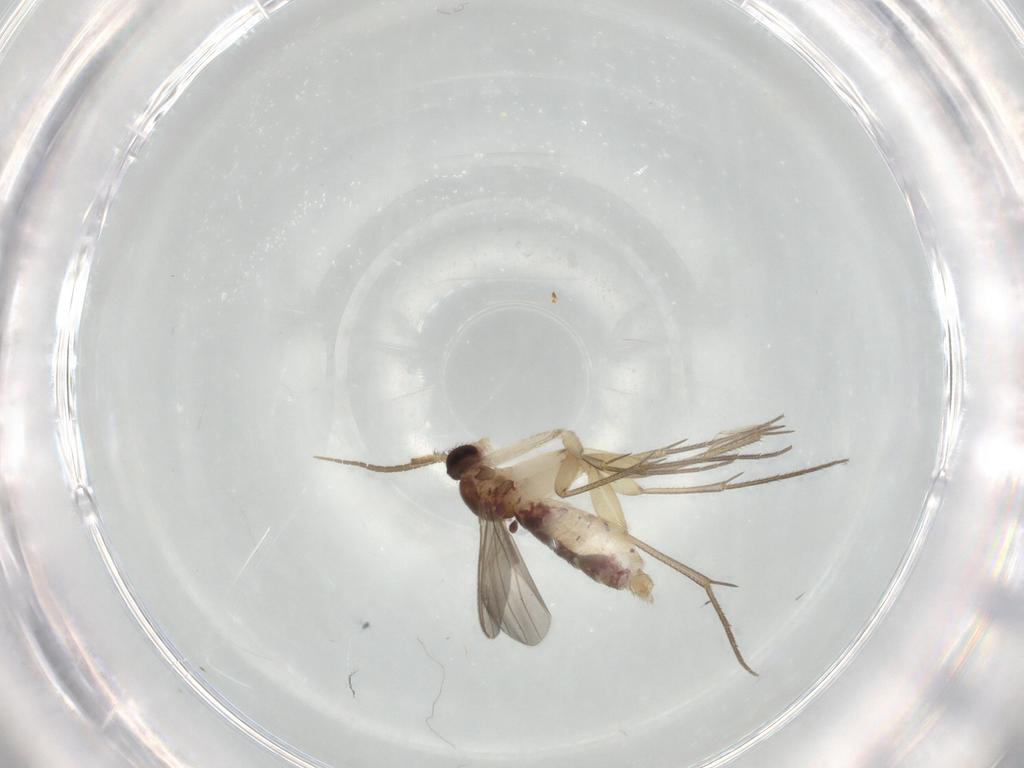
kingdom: Animalia
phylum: Arthropoda
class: Insecta
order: Diptera
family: Mycetophilidae
